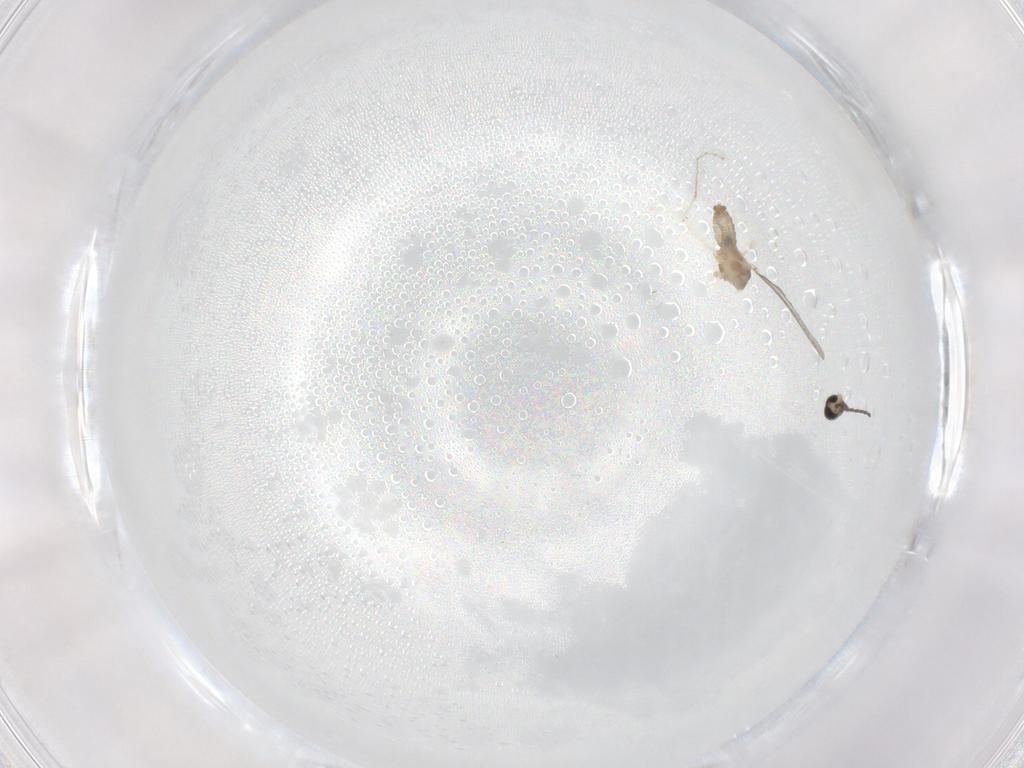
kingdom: Animalia
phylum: Arthropoda
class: Insecta
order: Diptera
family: Cecidomyiidae
